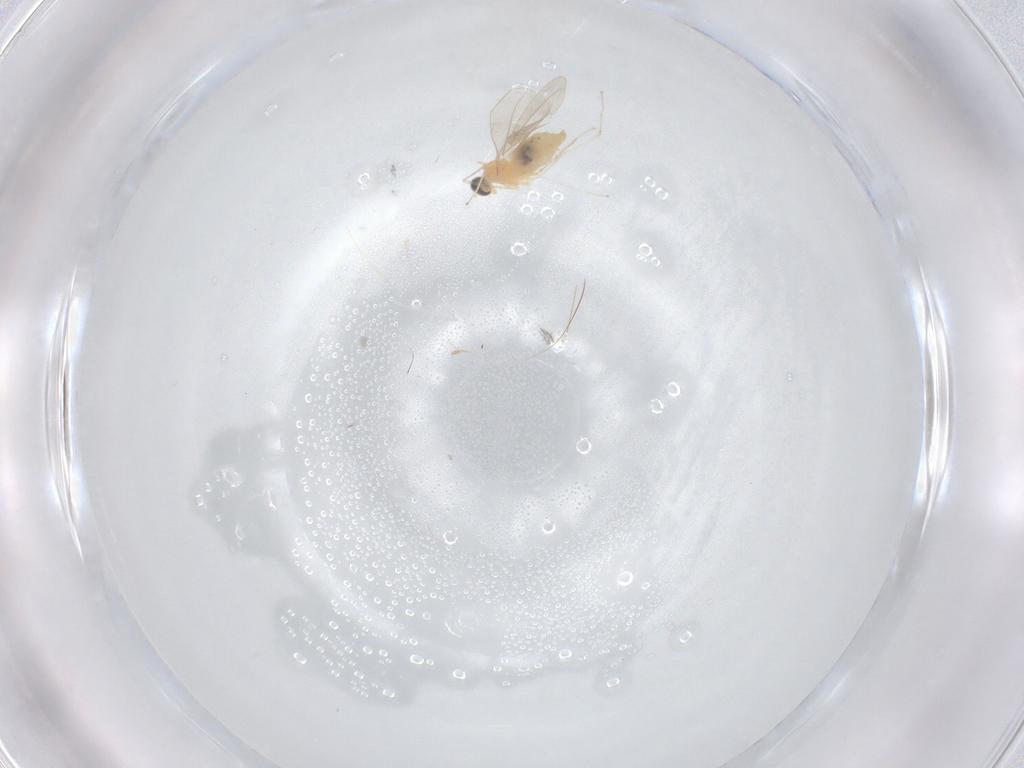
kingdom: Animalia
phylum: Arthropoda
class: Insecta
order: Diptera
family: Cecidomyiidae
